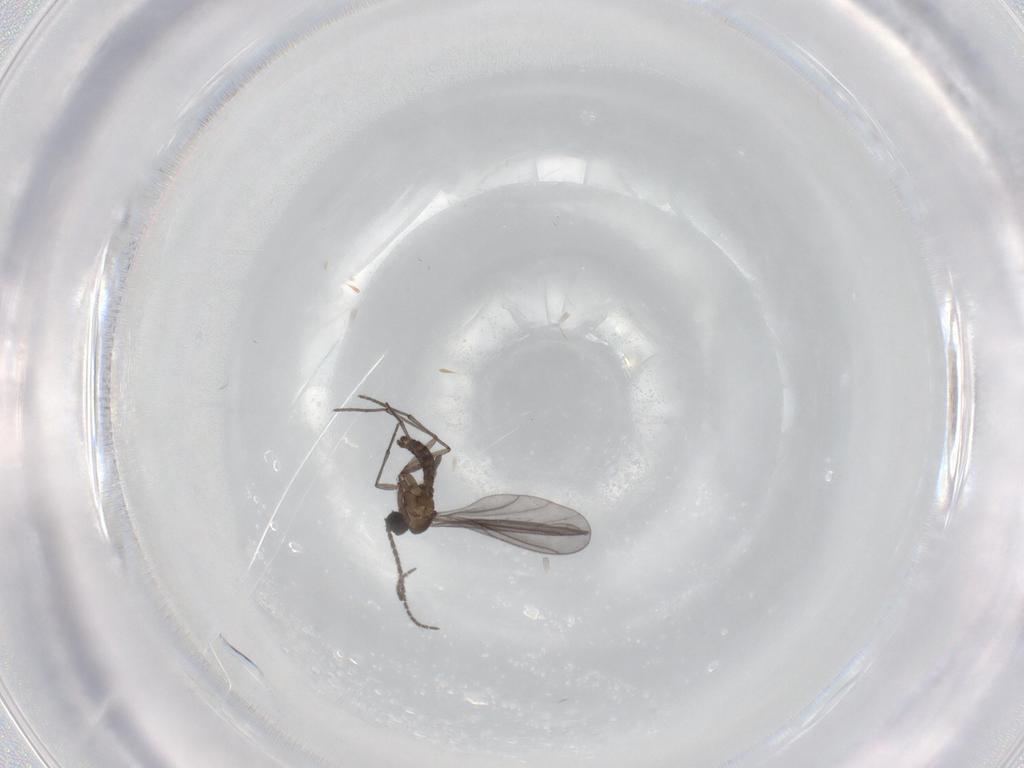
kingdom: Animalia
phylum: Arthropoda
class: Insecta
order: Diptera
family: Sciaridae
